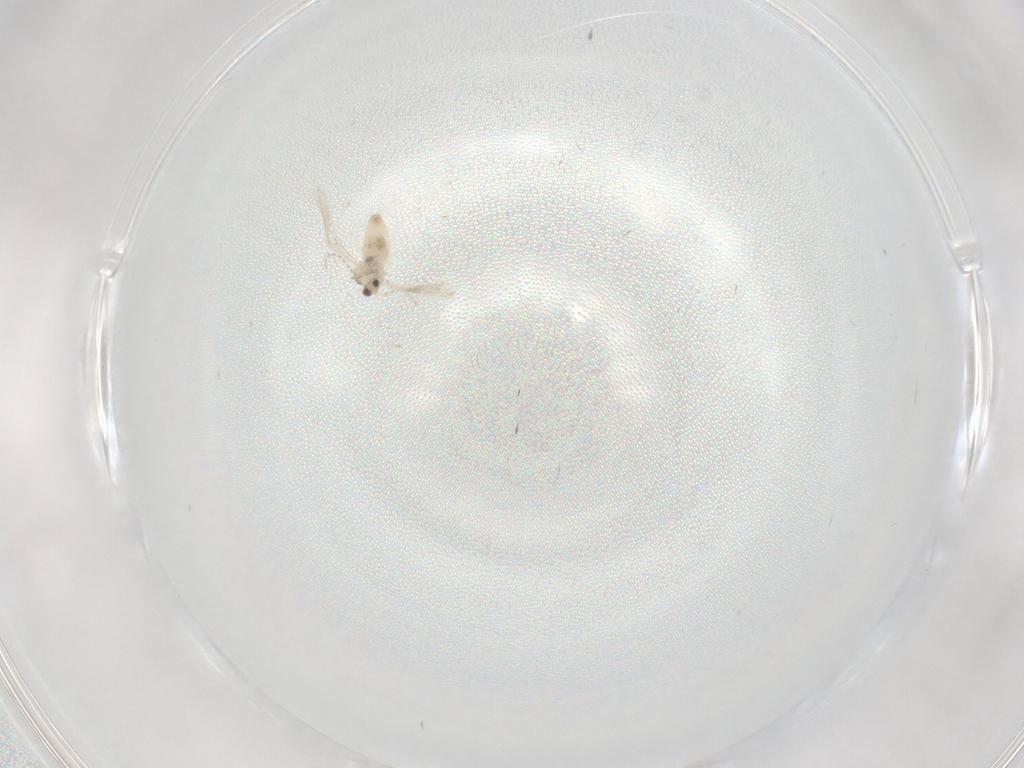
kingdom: Animalia
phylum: Arthropoda
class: Insecta
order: Diptera
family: Cecidomyiidae
